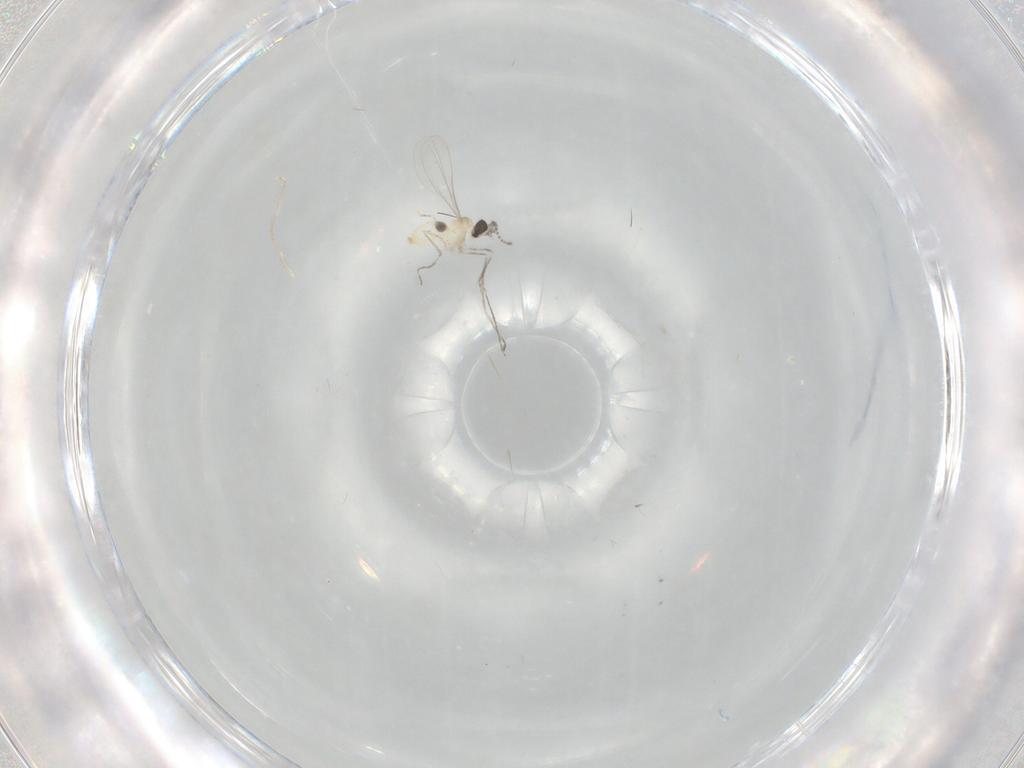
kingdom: Animalia
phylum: Arthropoda
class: Insecta
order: Diptera
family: Cecidomyiidae
